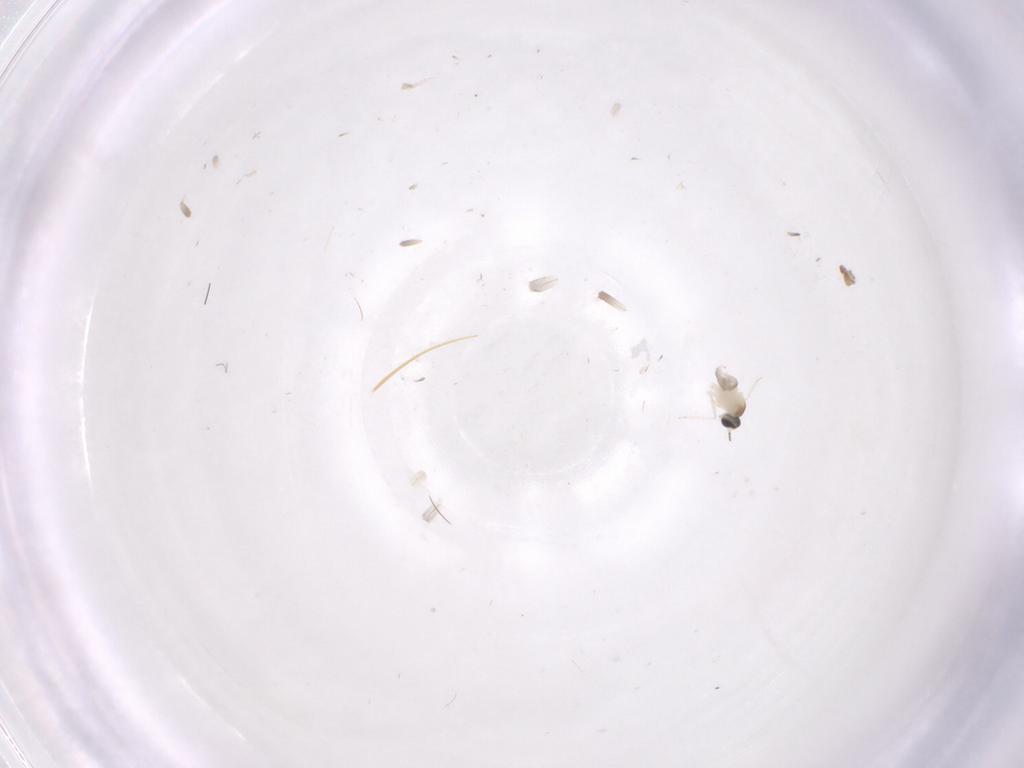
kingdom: Animalia
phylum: Arthropoda
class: Insecta
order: Diptera
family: Cecidomyiidae
